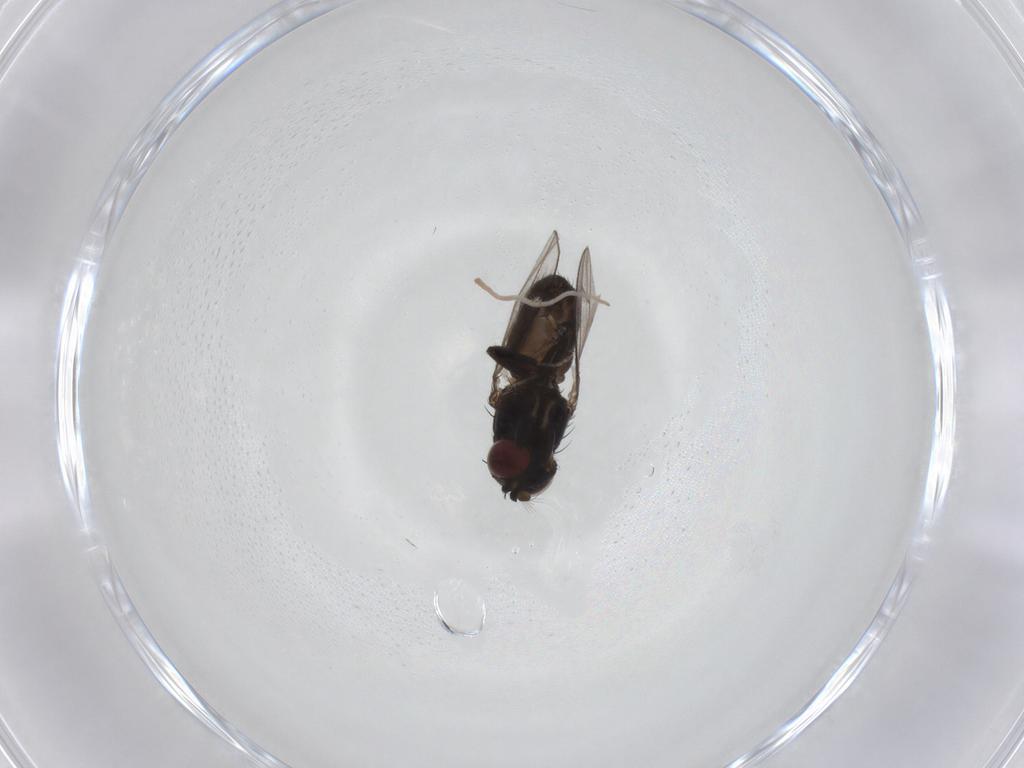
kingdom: Animalia
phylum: Arthropoda
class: Insecta
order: Diptera
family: Ephydridae
